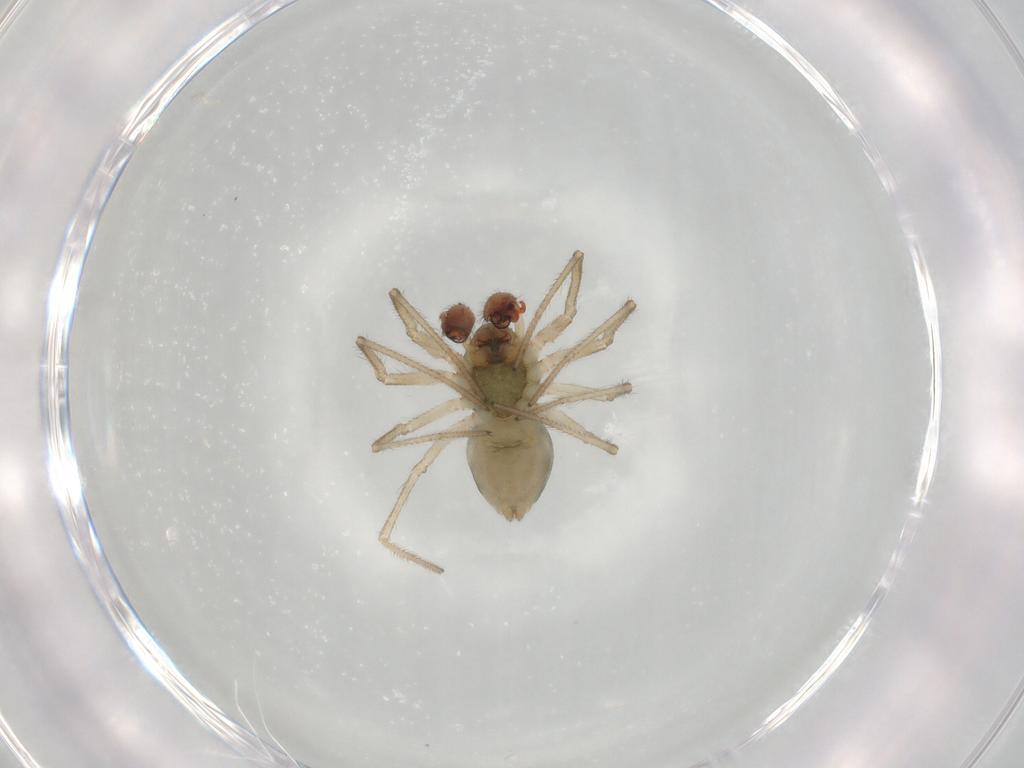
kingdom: Animalia
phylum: Arthropoda
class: Arachnida
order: Araneae
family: Linyphiidae
